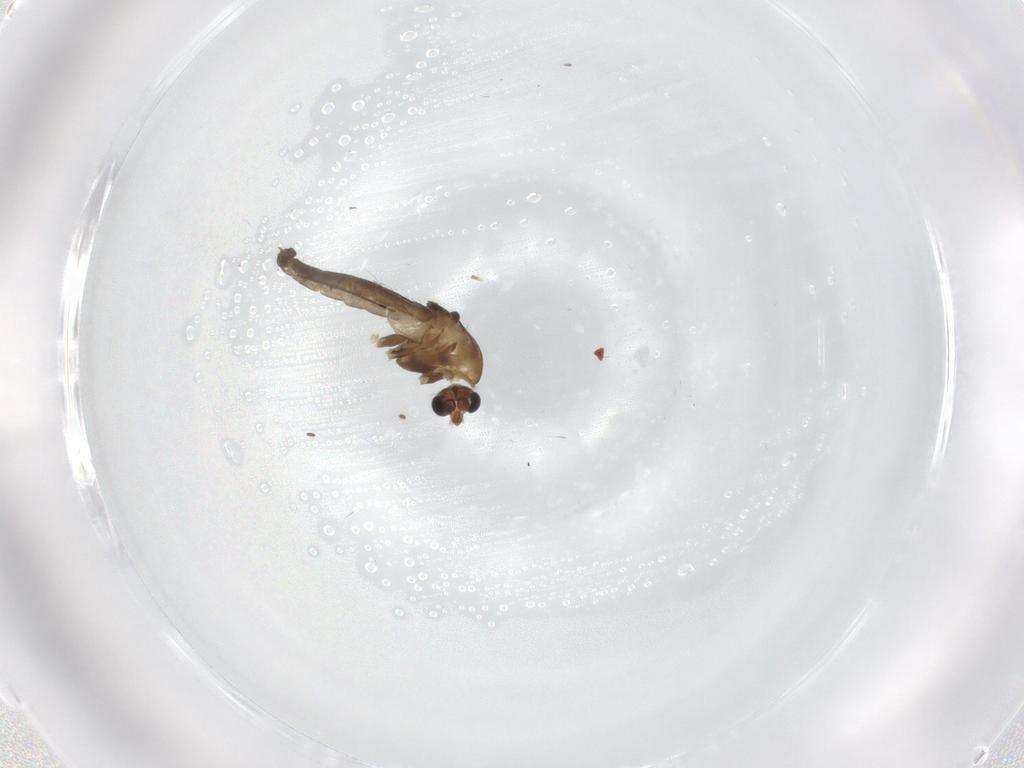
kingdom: Animalia
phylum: Arthropoda
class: Insecta
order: Diptera
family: Chironomidae
